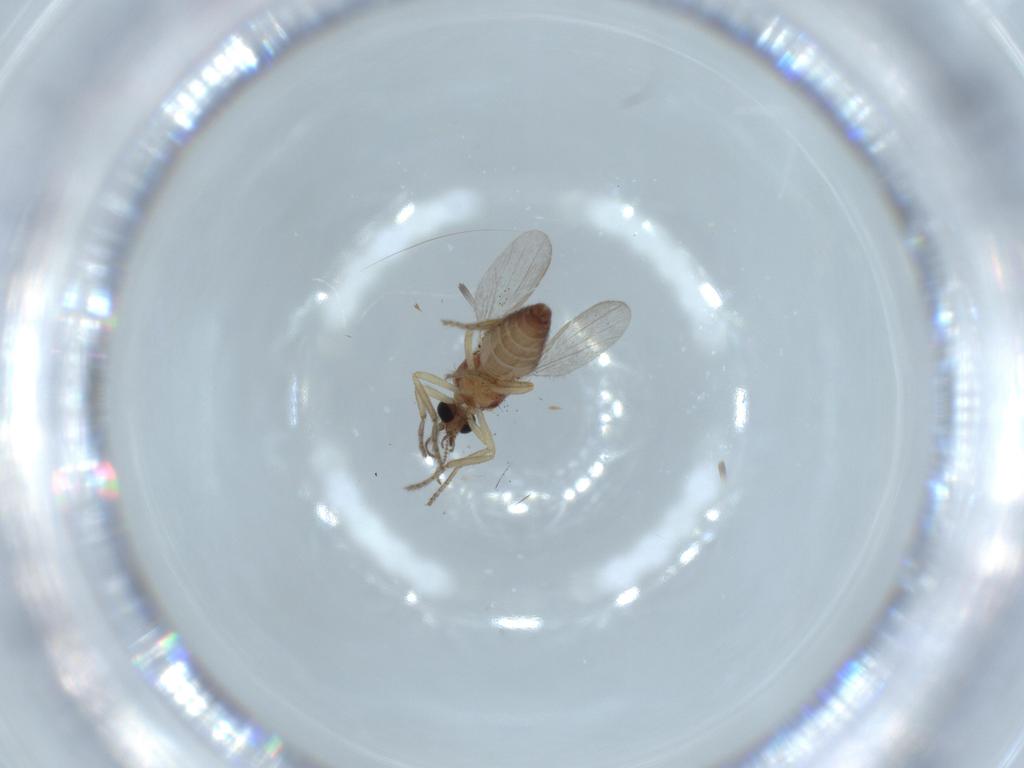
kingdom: Animalia
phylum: Arthropoda
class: Insecta
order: Diptera
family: Ceratopogonidae
